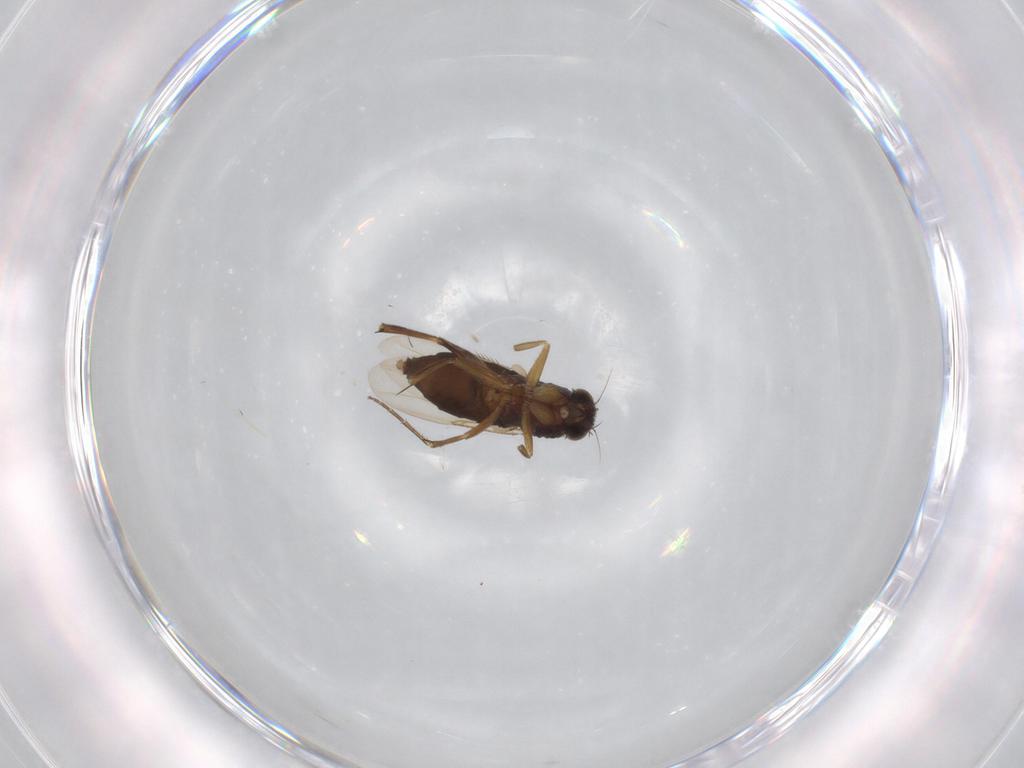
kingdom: Animalia
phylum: Arthropoda
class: Insecta
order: Diptera
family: Phoridae
